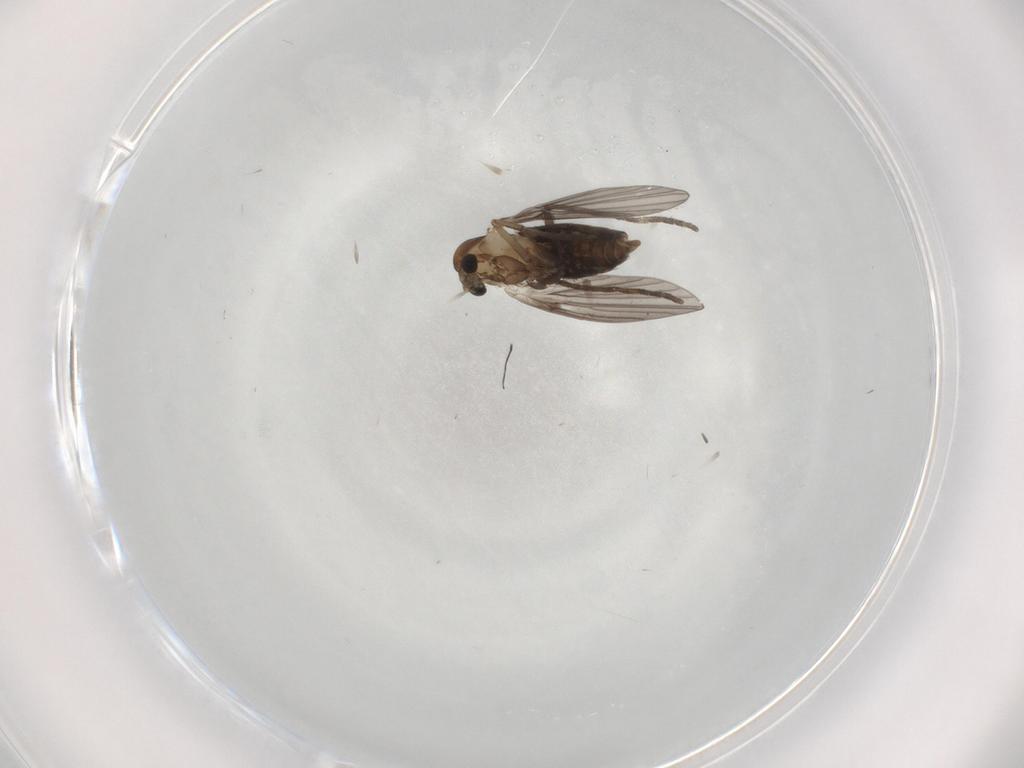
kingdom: Animalia
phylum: Arthropoda
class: Insecta
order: Diptera
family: Psychodidae
